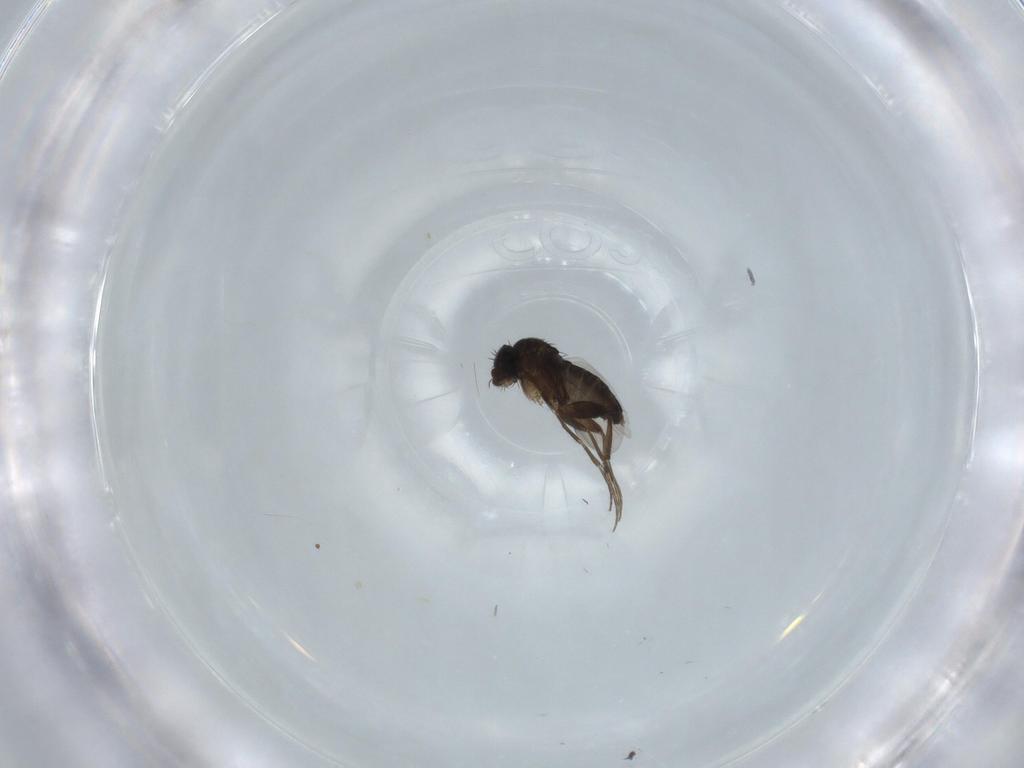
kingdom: Animalia
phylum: Arthropoda
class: Insecta
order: Diptera
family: Phoridae
